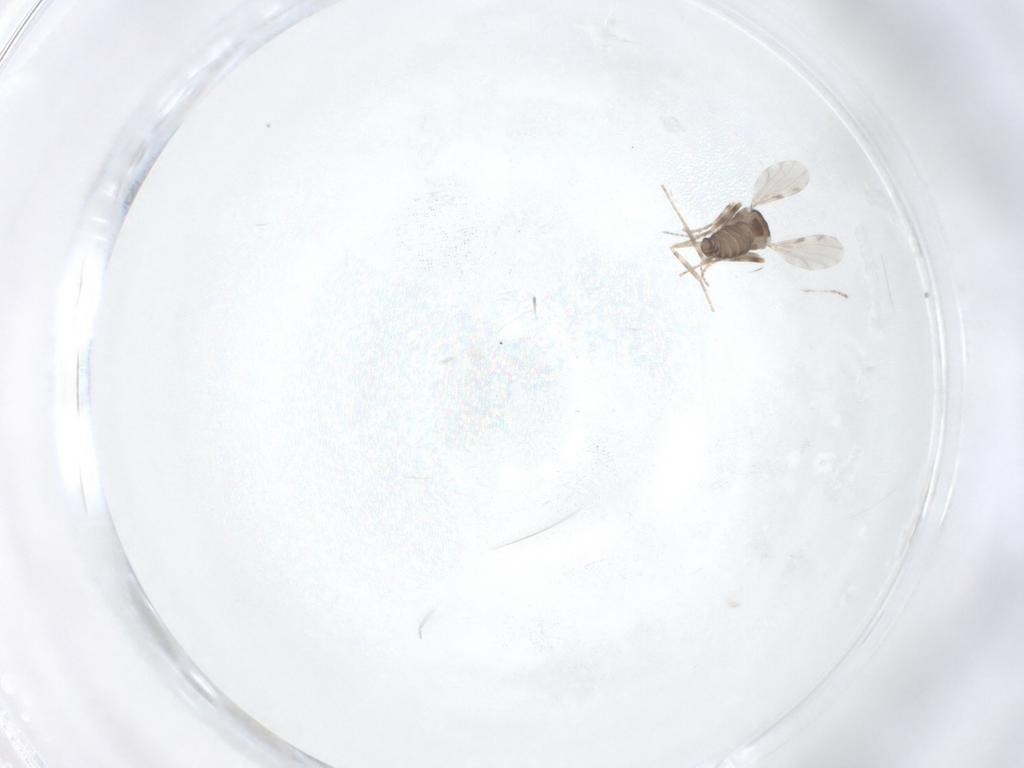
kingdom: Animalia
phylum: Arthropoda
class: Insecta
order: Diptera
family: Ceratopogonidae
